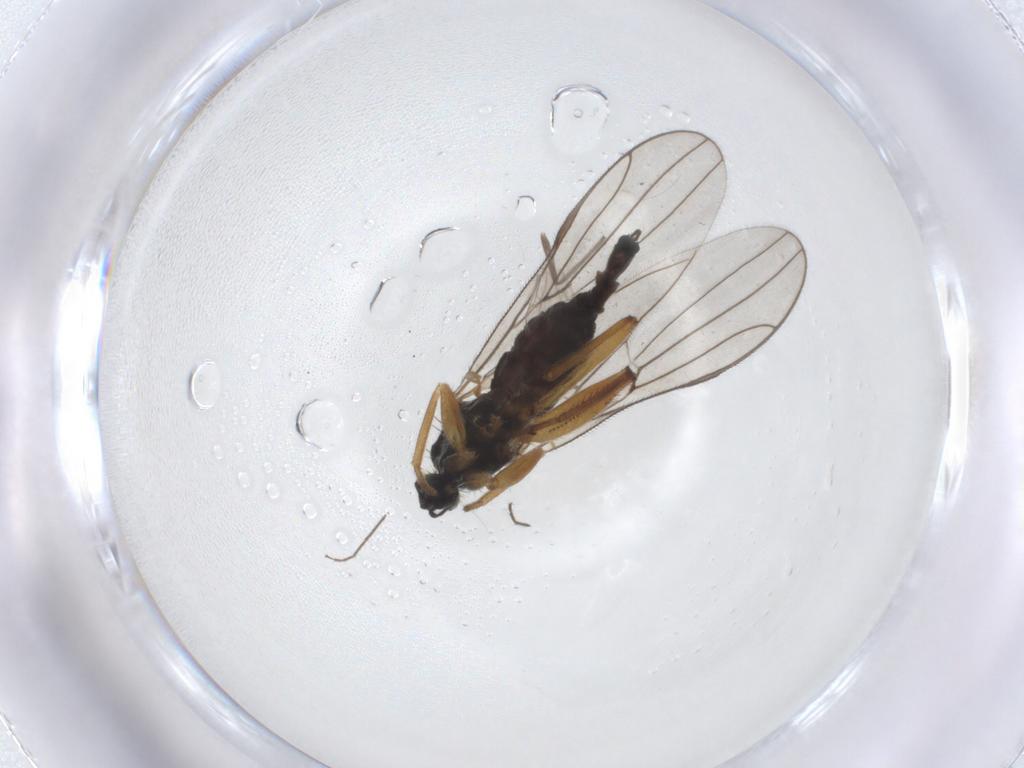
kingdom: Animalia
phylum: Arthropoda
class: Insecta
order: Diptera
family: Hybotidae
